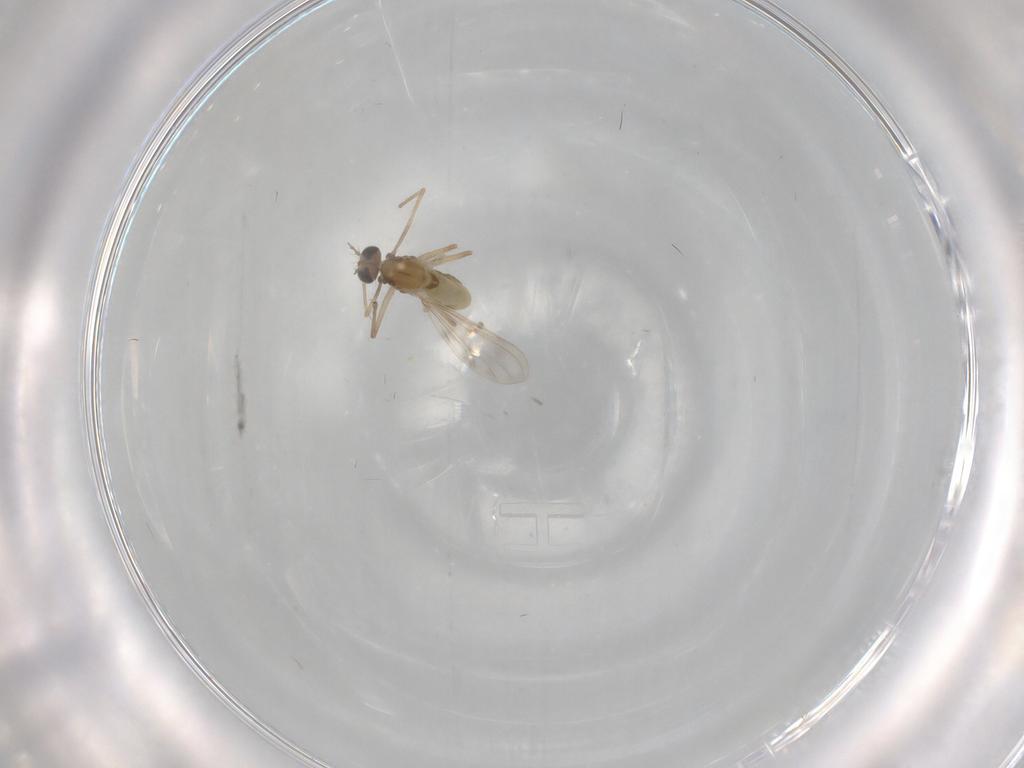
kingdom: Animalia
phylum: Arthropoda
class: Insecta
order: Diptera
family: Chironomidae
